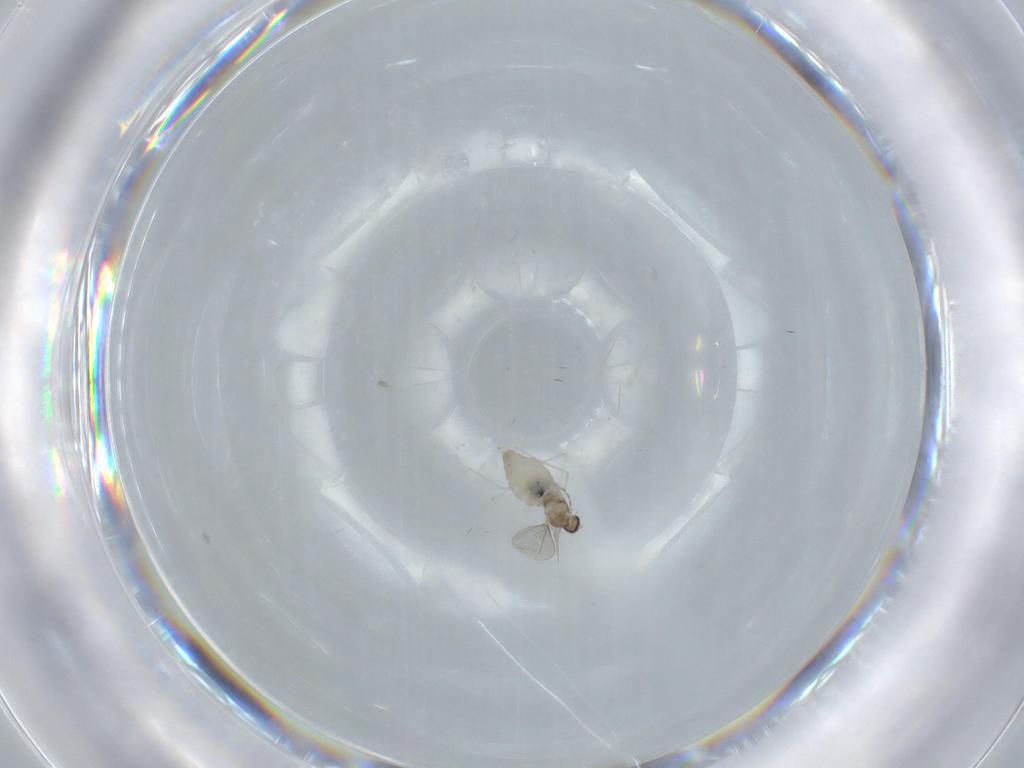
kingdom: Animalia
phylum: Arthropoda
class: Insecta
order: Diptera
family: Cecidomyiidae
